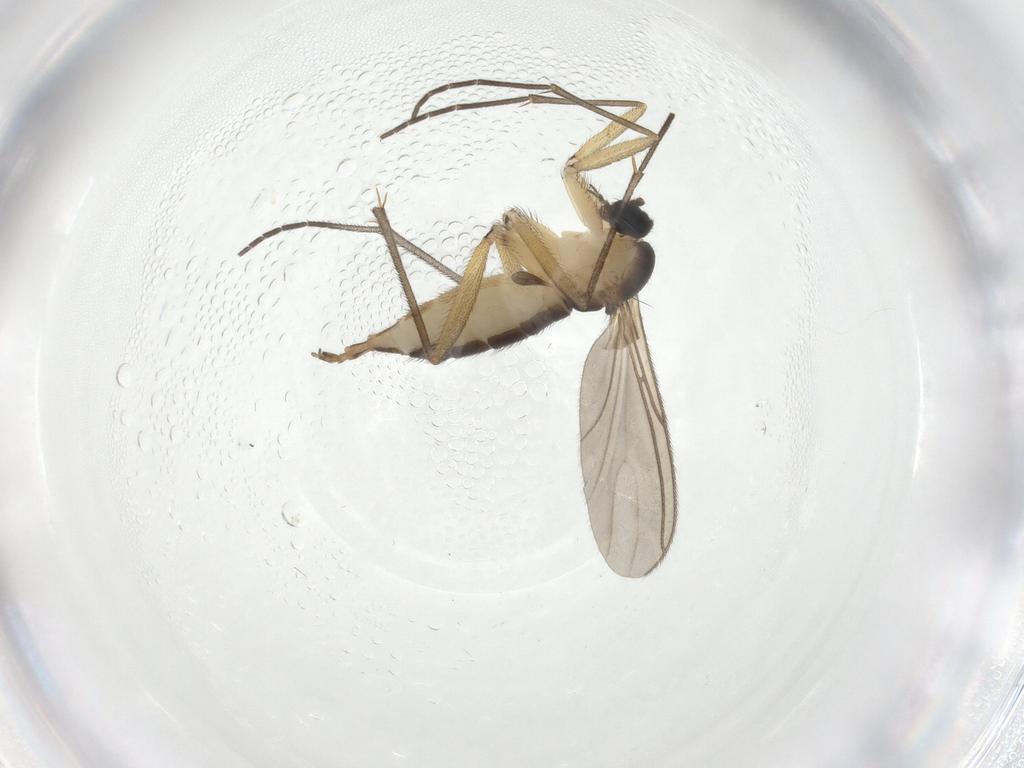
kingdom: Animalia
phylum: Arthropoda
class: Insecta
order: Diptera
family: Sciaridae
